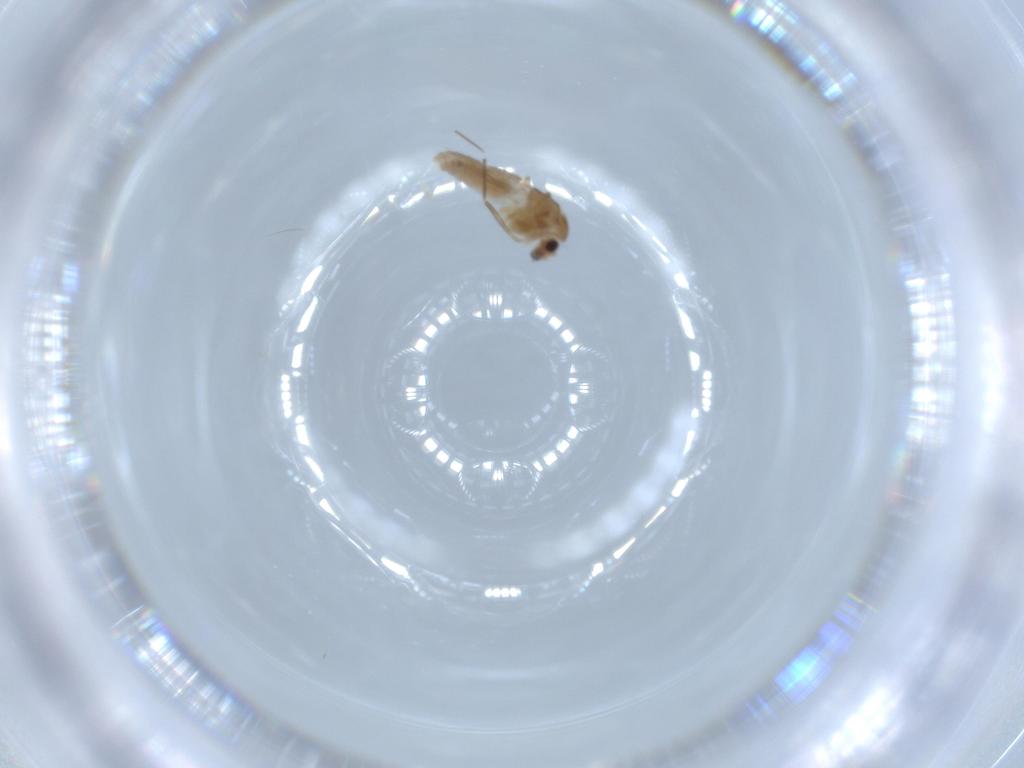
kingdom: Animalia
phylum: Arthropoda
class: Insecta
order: Diptera
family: Chironomidae
